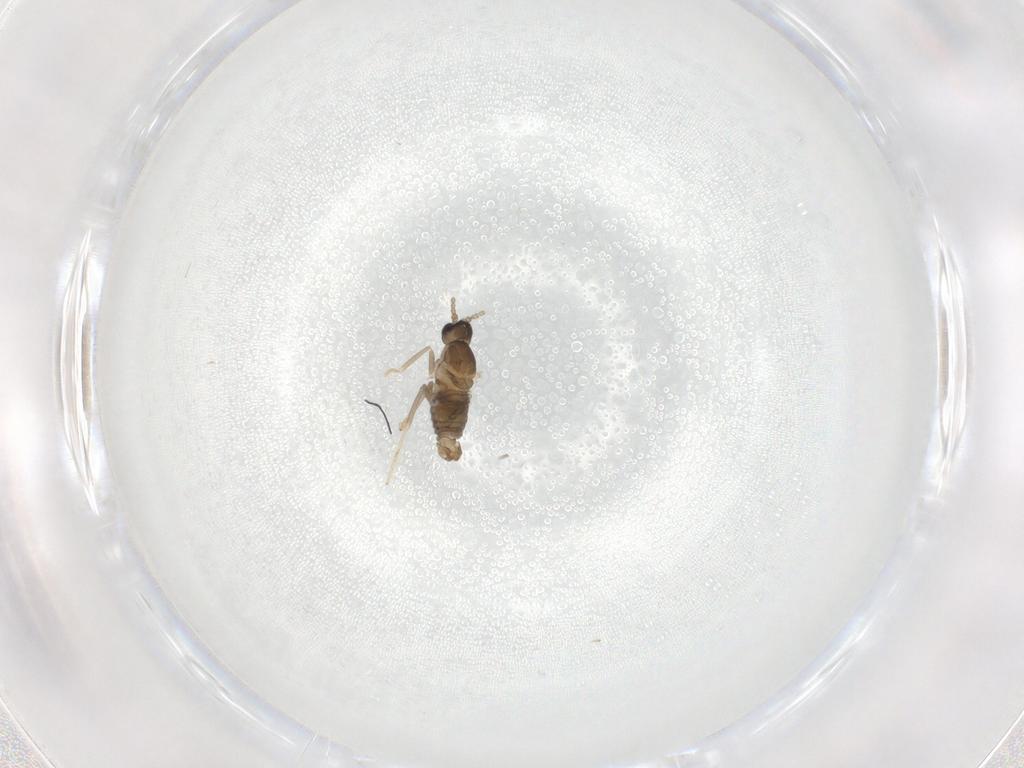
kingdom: Animalia
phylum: Arthropoda
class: Insecta
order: Diptera
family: Cecidomyiidae
